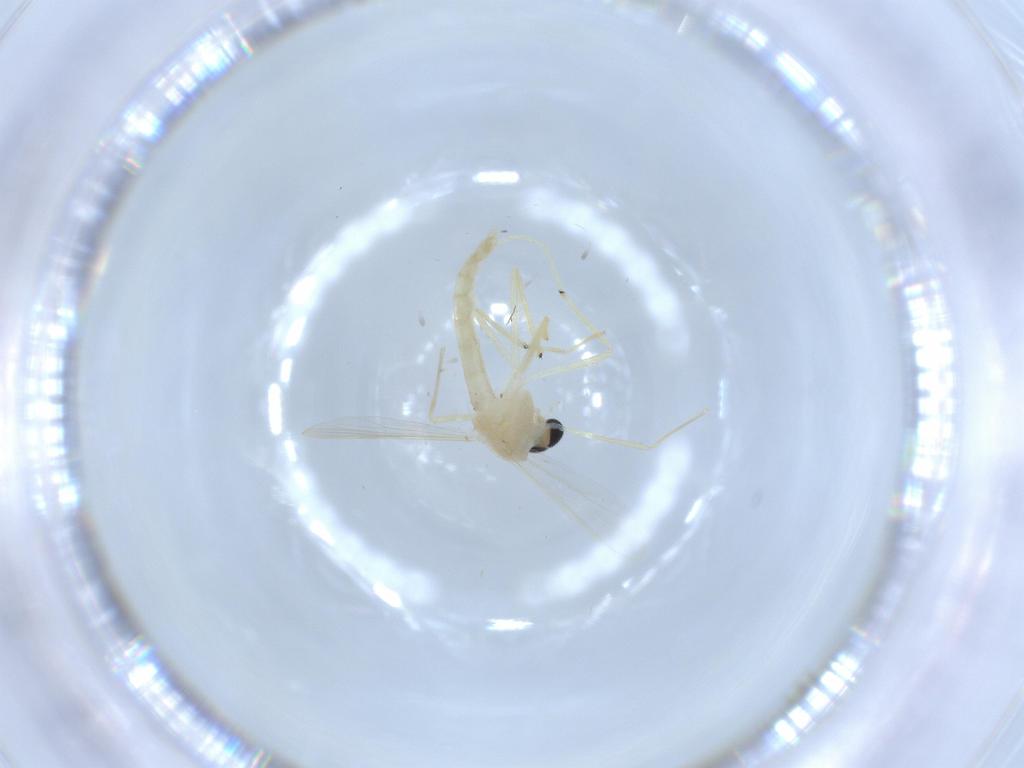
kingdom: Animalia
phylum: Arthropoda
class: Insecta
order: Diptera
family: Chironomidae
